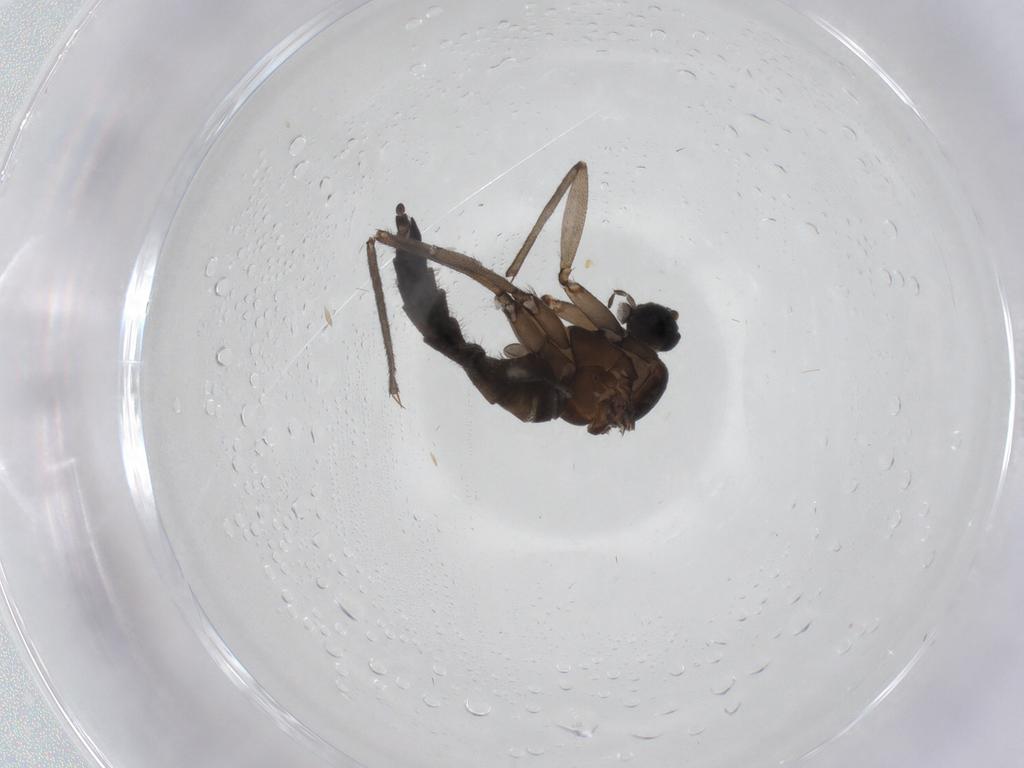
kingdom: Animalia
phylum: Arthropoda
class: Insecta
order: Diptera
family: Sciaridae
